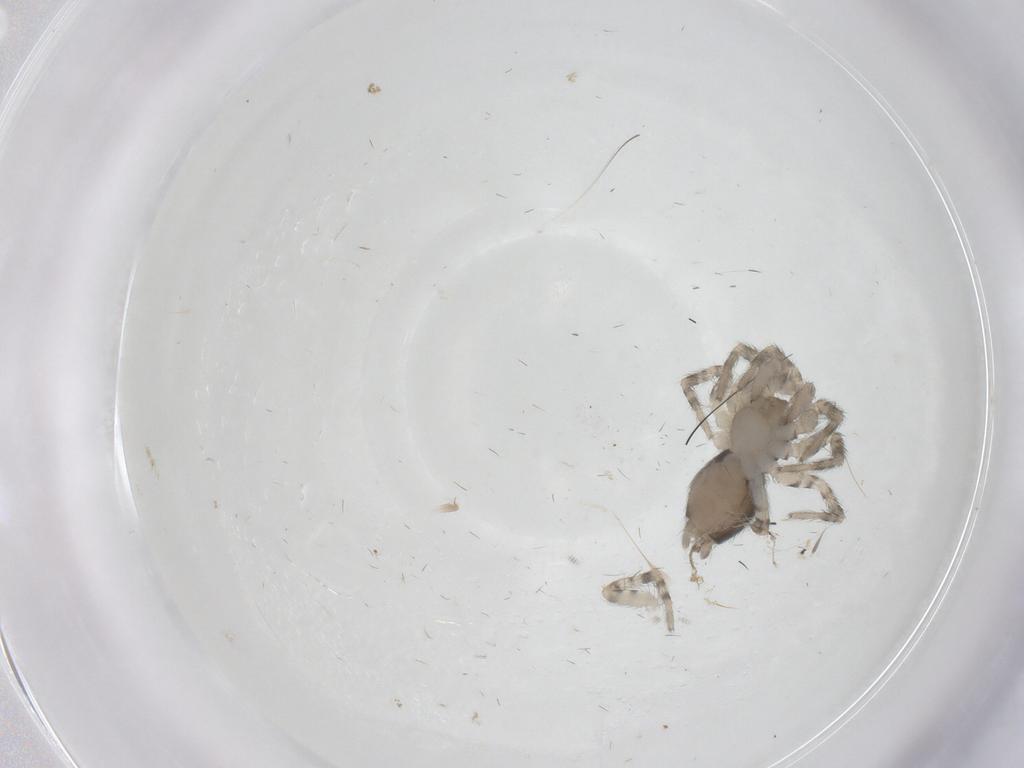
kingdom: Animalia
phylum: Arthropoda
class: Arachnida
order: Araneae
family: Oecobiidae
